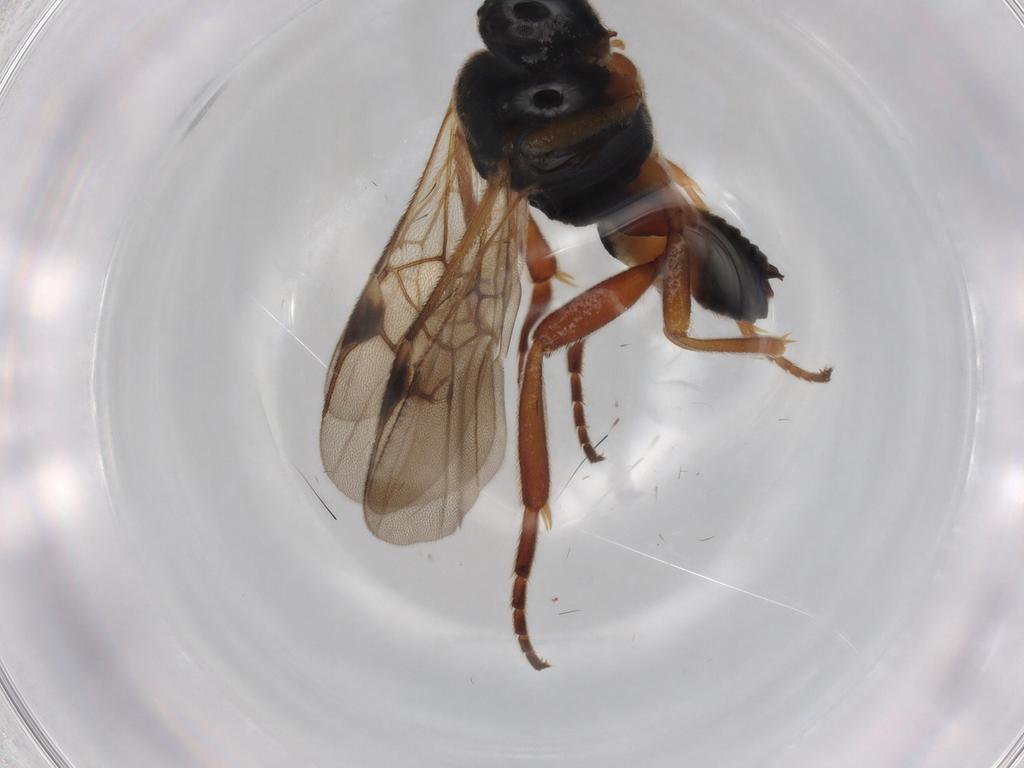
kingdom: Animalia
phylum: Arthropoda
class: Insecta
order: Hymenoptera
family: Braconidae
